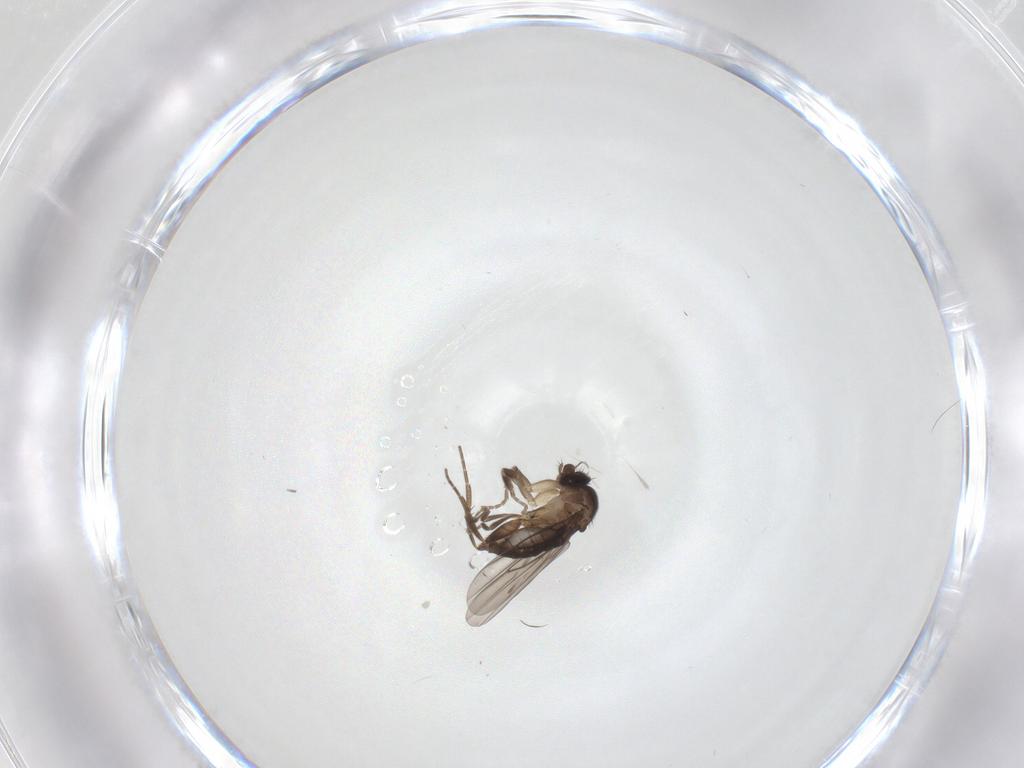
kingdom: Animalia
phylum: Arthropoda
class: Insecta
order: Diptera
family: Phoridae
